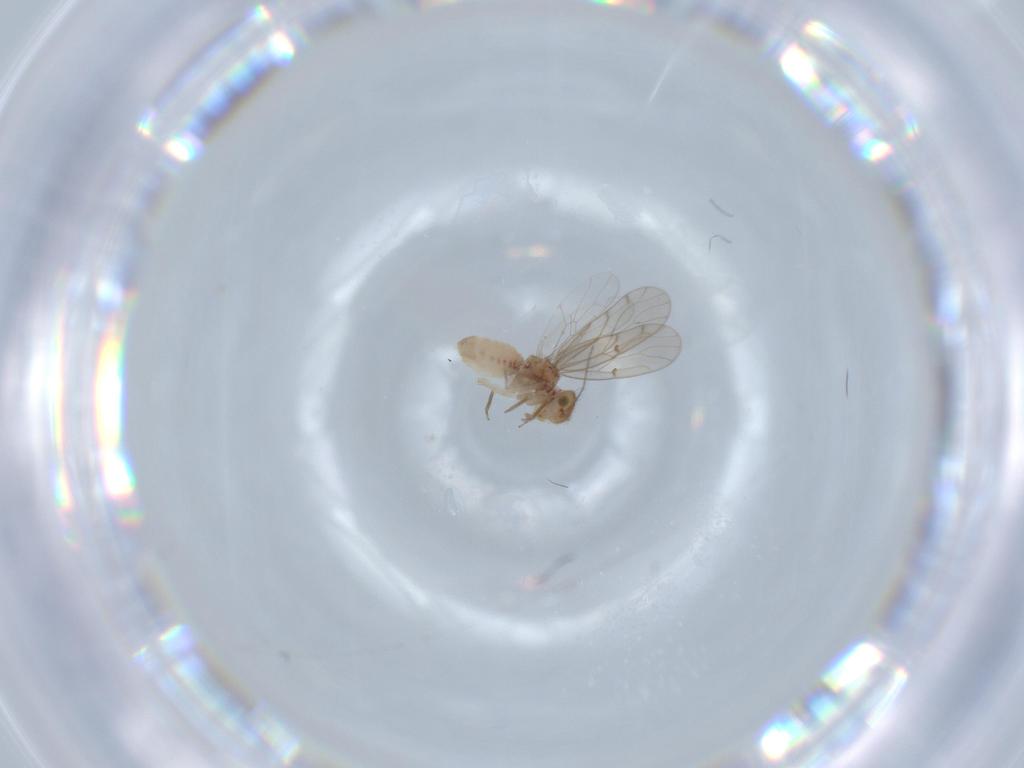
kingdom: Animalia
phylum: Arthropoda
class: Insecta
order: Psocodea
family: Ectopsocidae
